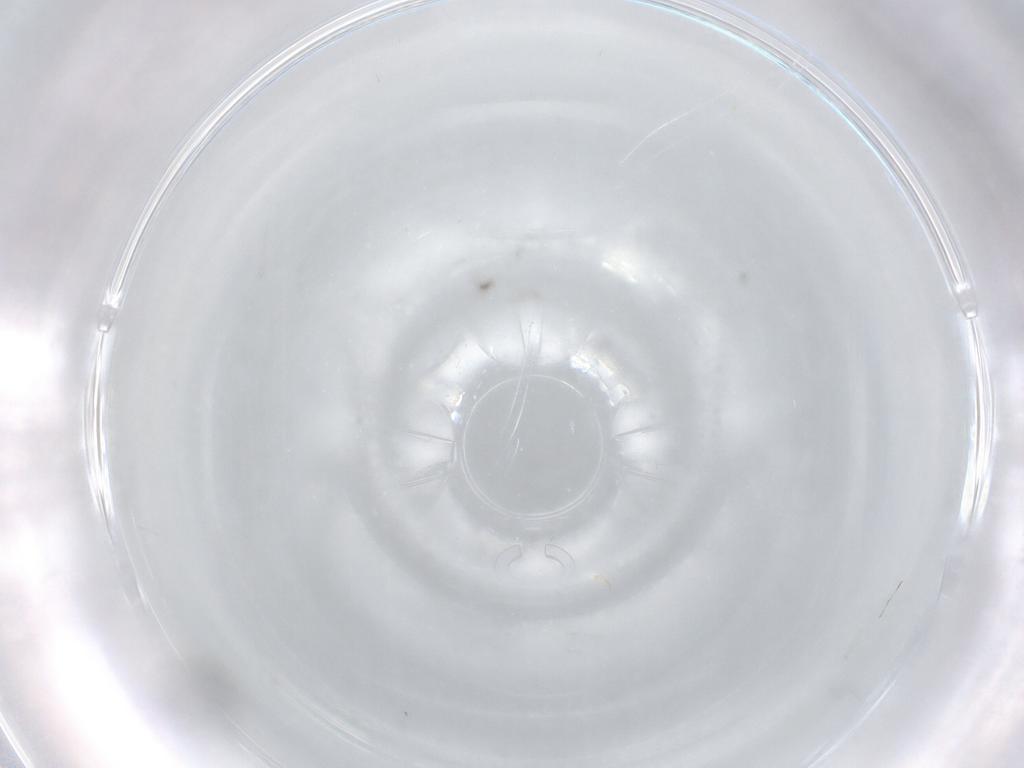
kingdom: Animalia
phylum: Arthropoda
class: Insecta
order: Hymenoptera
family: Mymaridae
